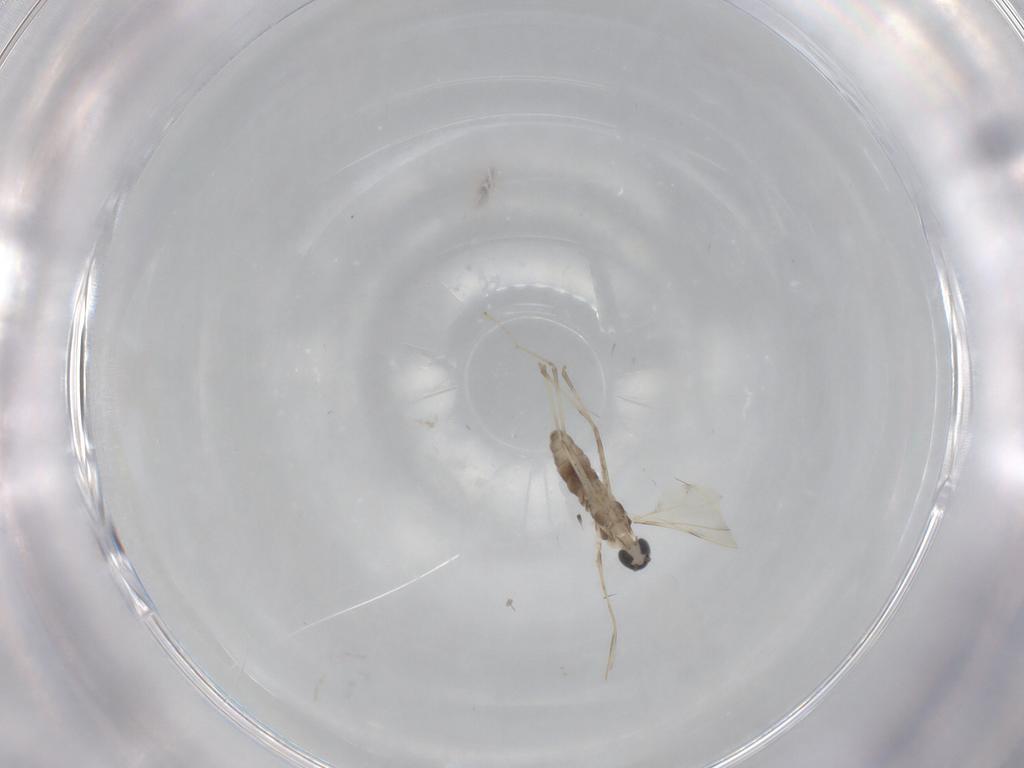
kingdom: Animalia
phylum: Arthropoda
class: Insecta
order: Diptera
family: Cecidomyiidae
